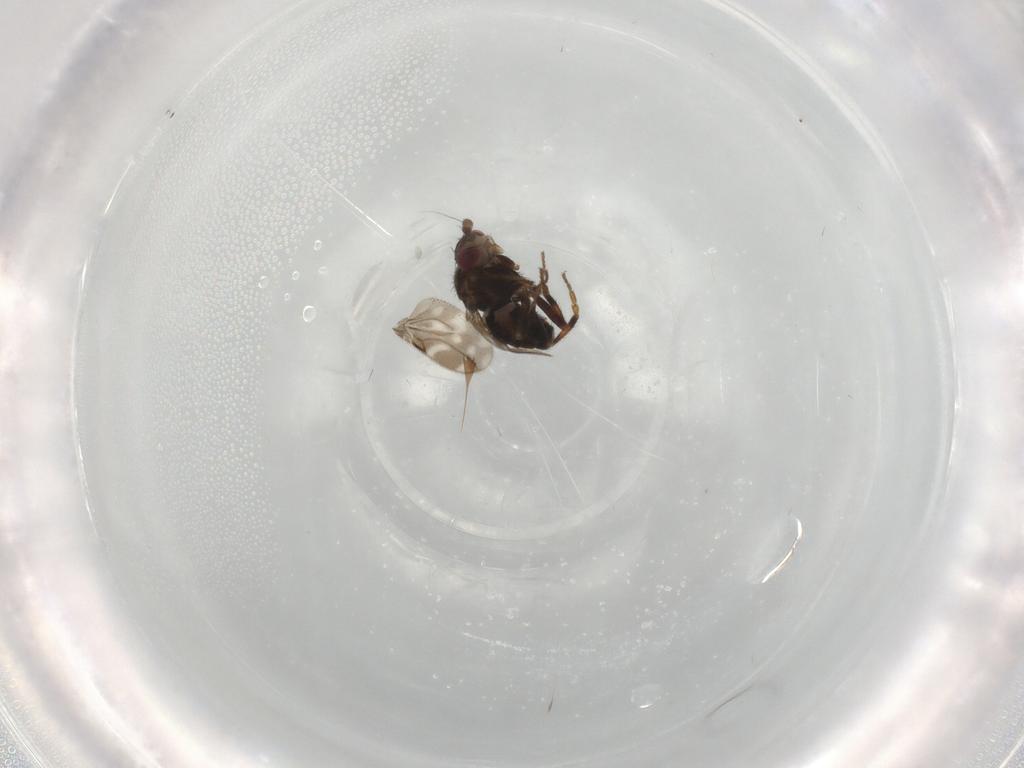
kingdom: Animalia
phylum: Arthropoda
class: Insecta
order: Diptera
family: Sphaeroceridae
